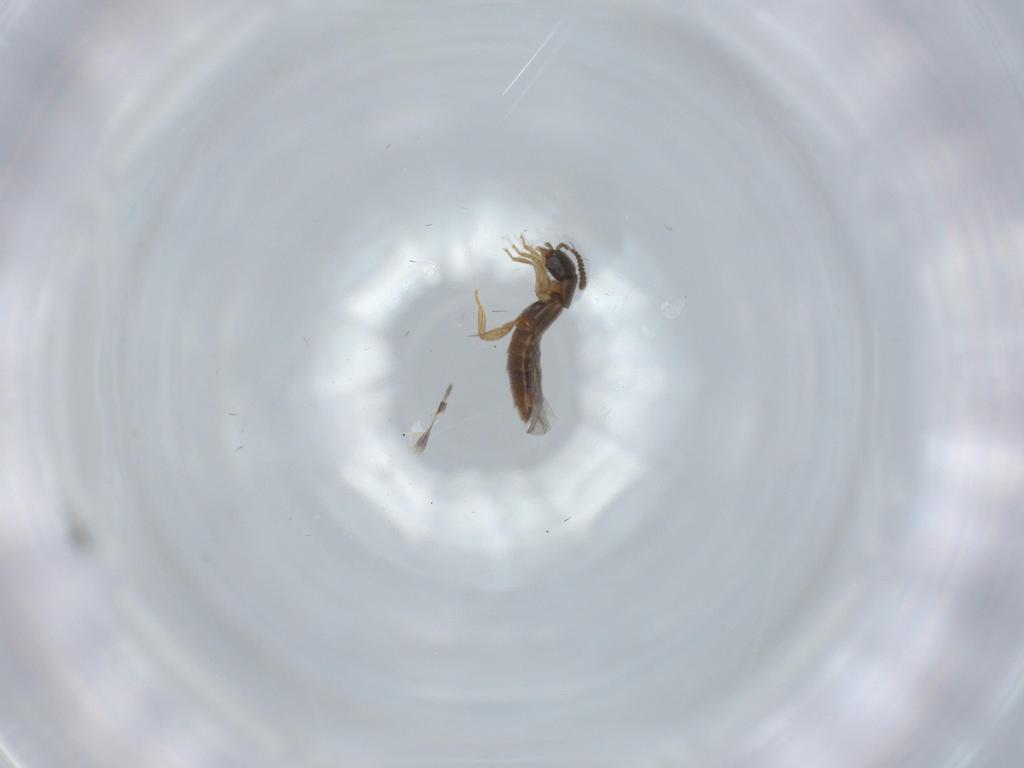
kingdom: Animalia
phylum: Arthropoda
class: Insecta
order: Coleoptera
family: Staphylinidae
